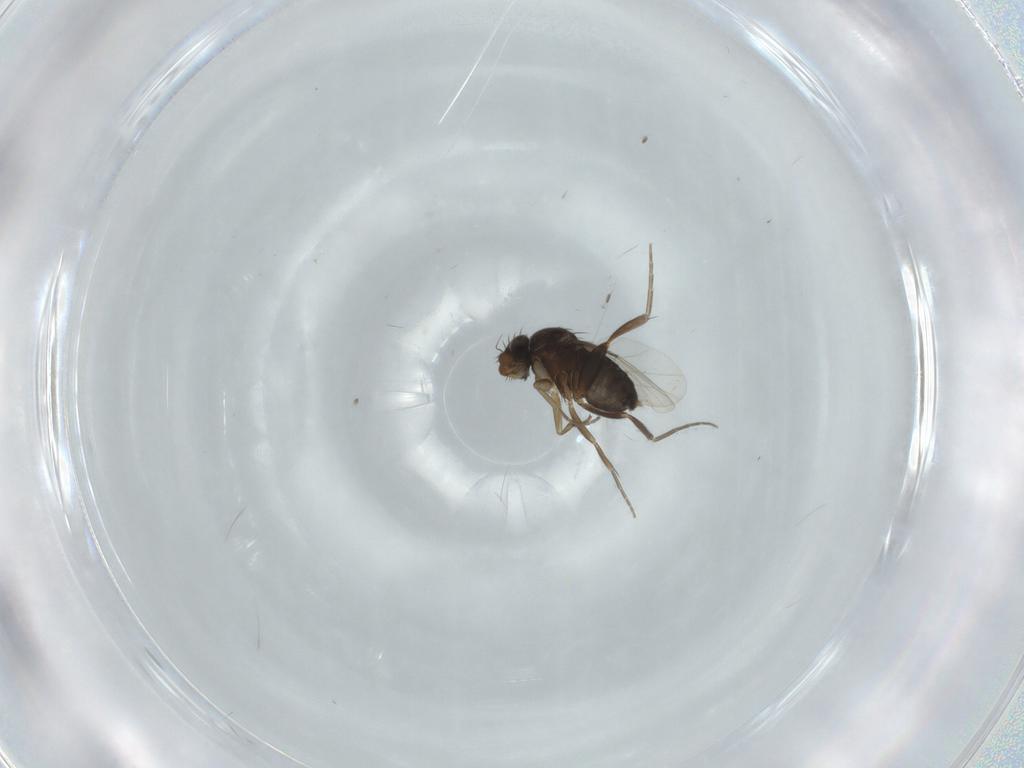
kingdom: Animalia
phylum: Arthropoda
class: Insecta
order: Diptera
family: Phoridae
